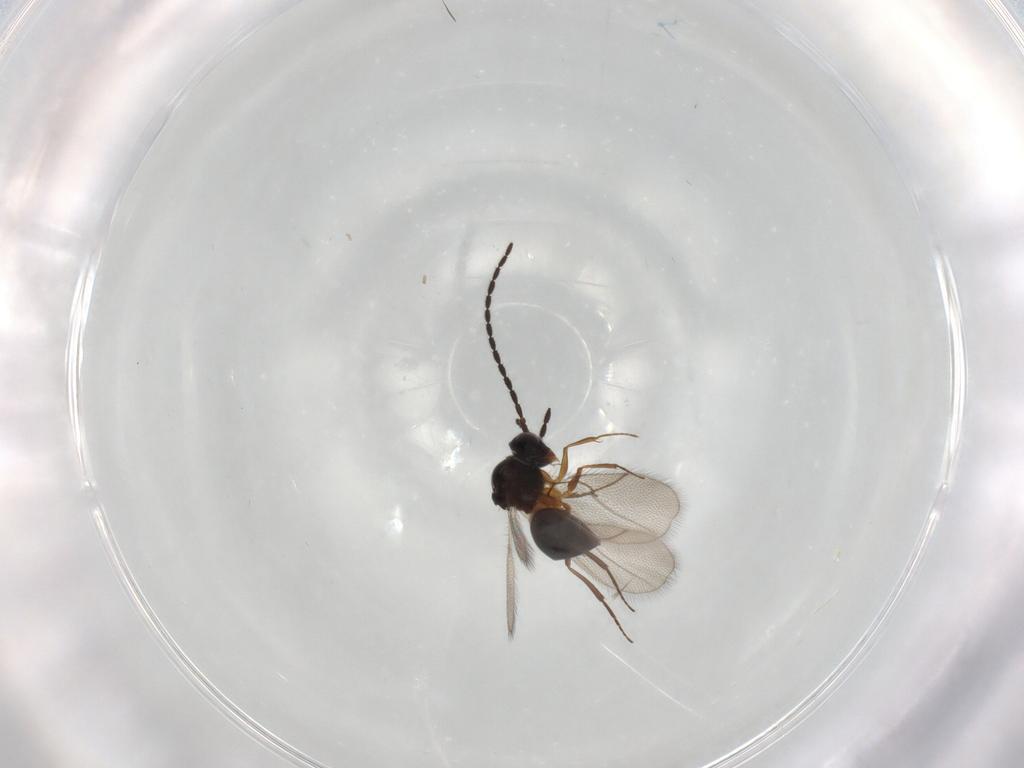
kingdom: Animalia
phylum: Arthropoda
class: Insecta
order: Hymenoptera
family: Figitidae
